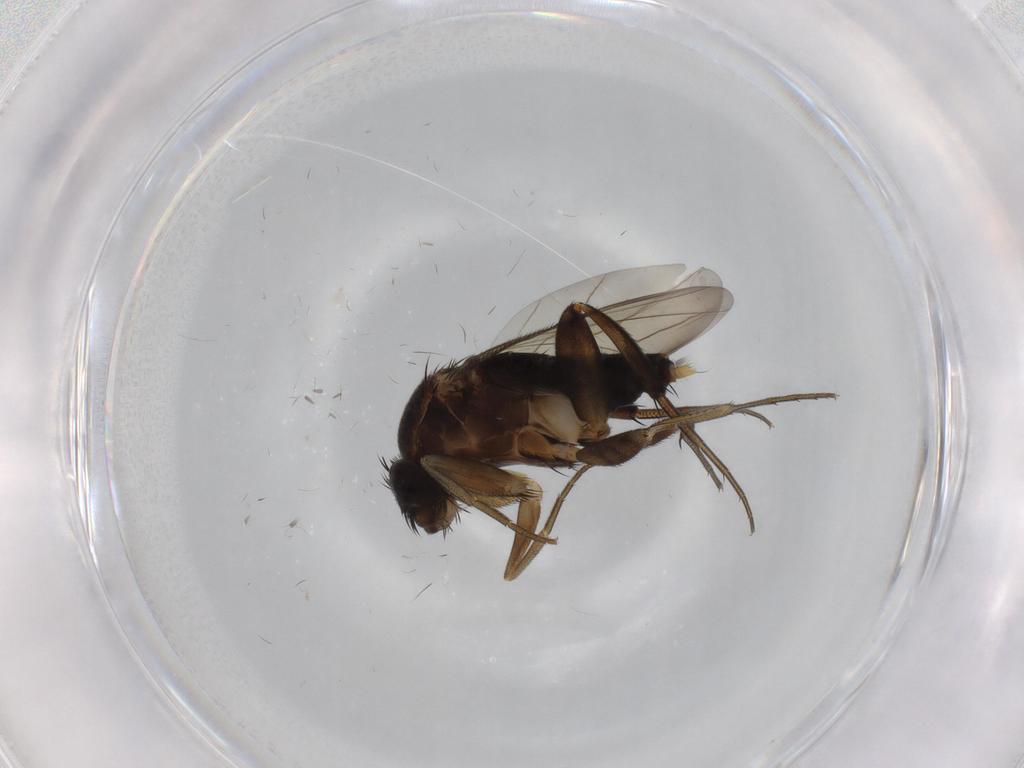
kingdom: Animalia
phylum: Arthropoda
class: Insecta
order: Diptera
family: Phoridae
